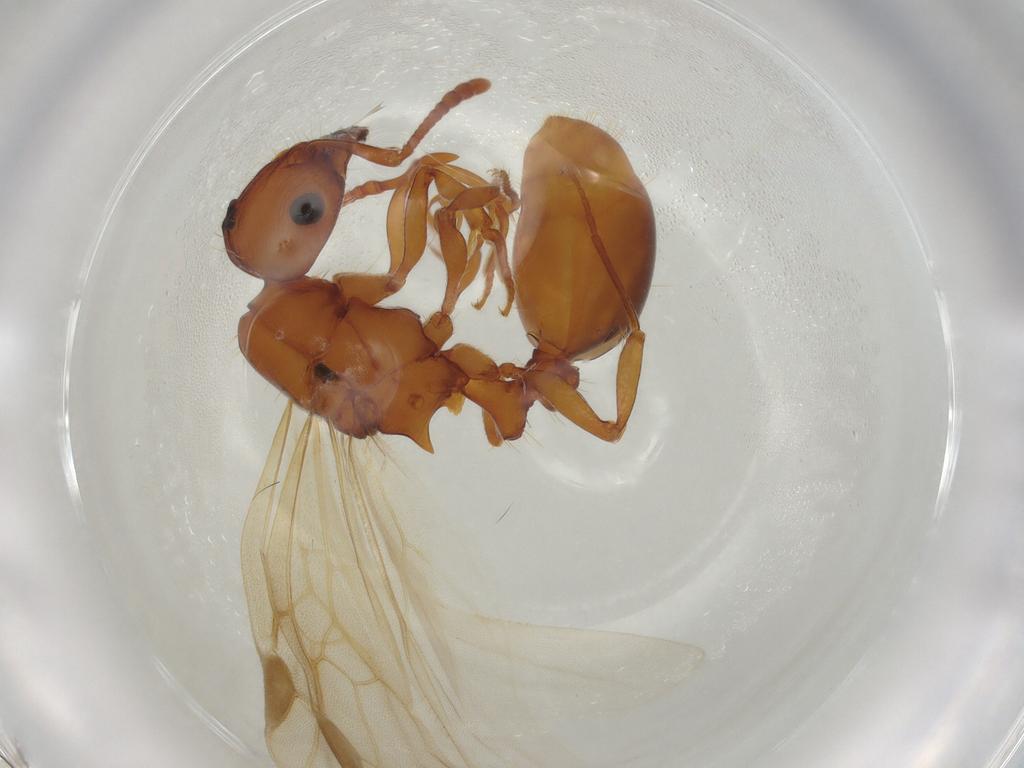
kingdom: Animalia
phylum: Arthropoda
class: Insecta
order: Hymenoptera
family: Formicidae
